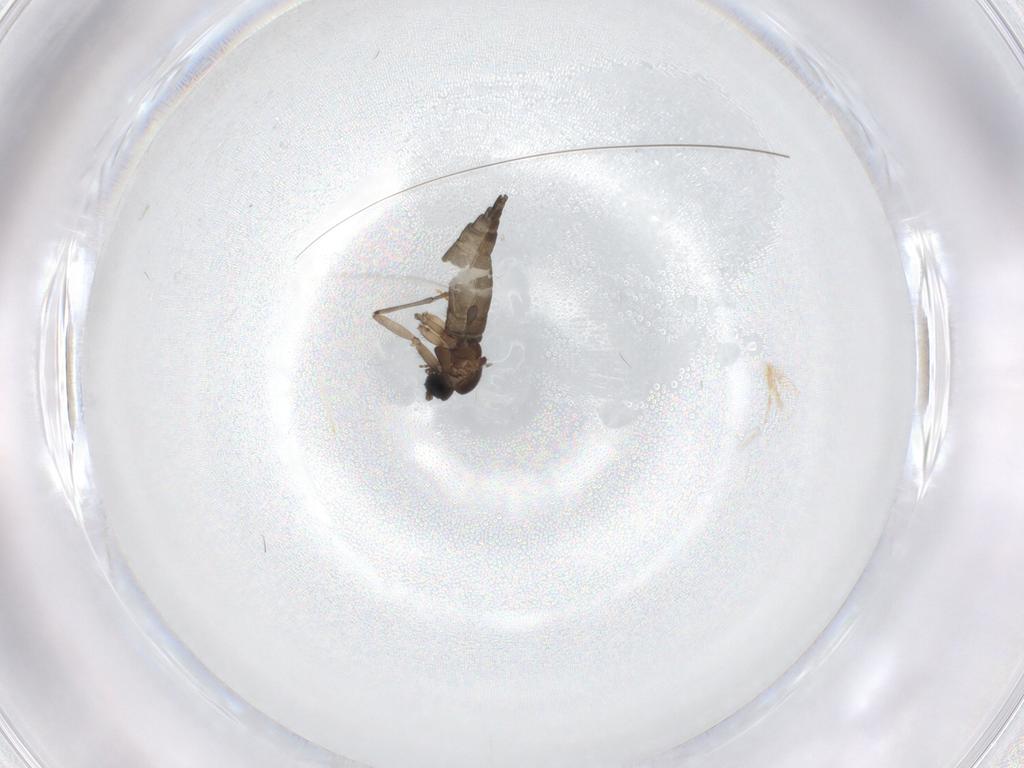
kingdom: Animalia
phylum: Arthropoda
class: Insecta
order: Diptera
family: Sciaridae
